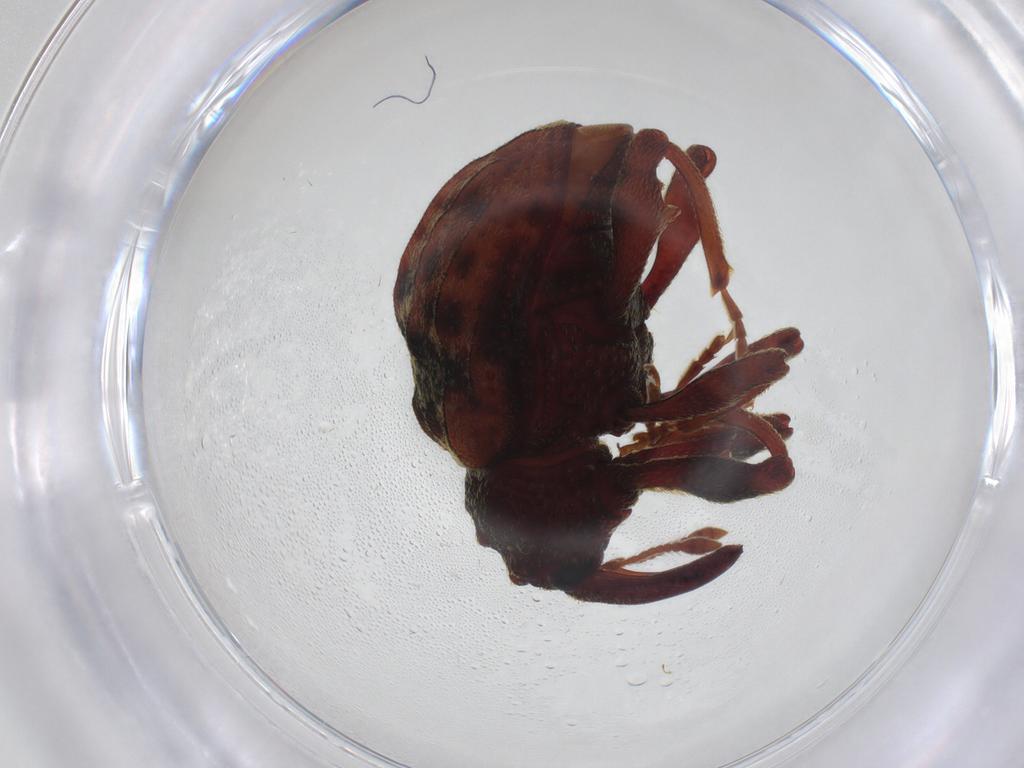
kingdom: Animalia
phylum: Arthropoda
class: Insecta
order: Coleoptera
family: Curculionidae
